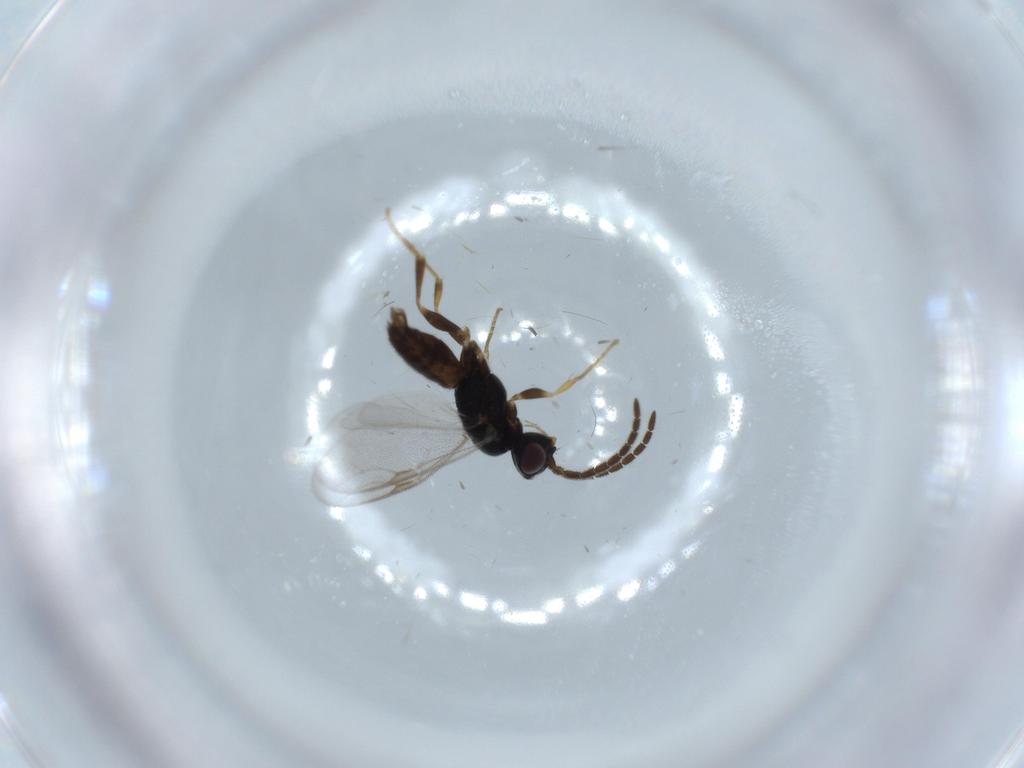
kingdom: Animalia
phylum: Arthropoda
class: Insecta
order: Hymenoptera
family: Dryinidae
